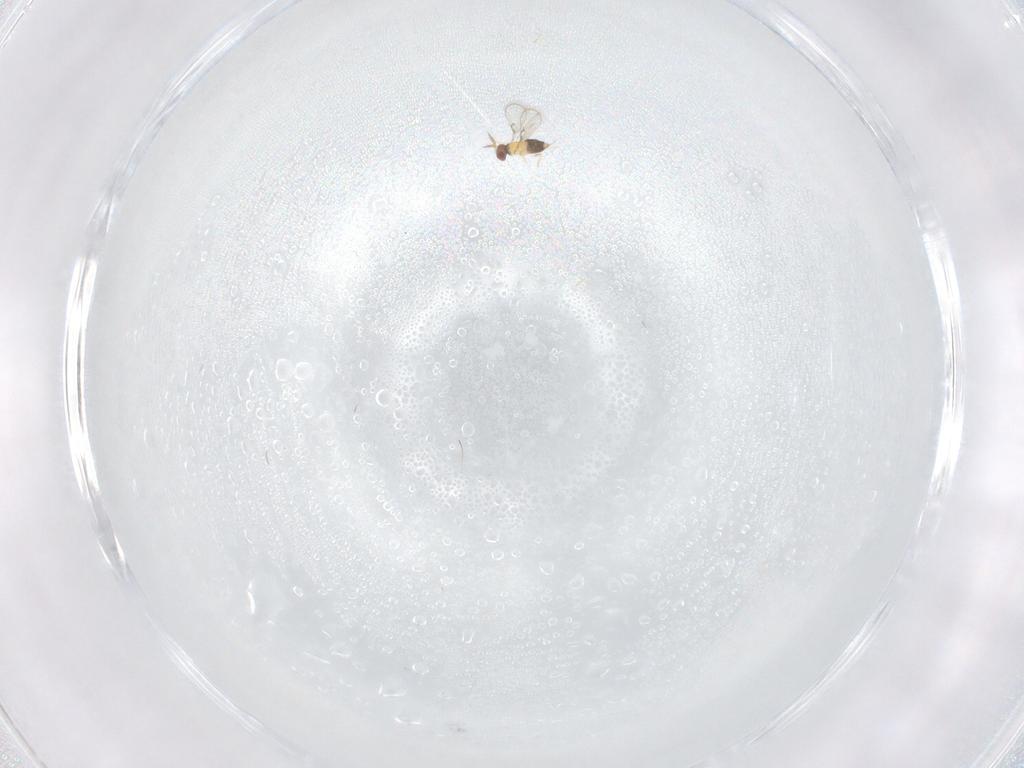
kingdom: Animalia
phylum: Arthropoda
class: Insecta
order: Hymenoptera
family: Trichogrammatidae
